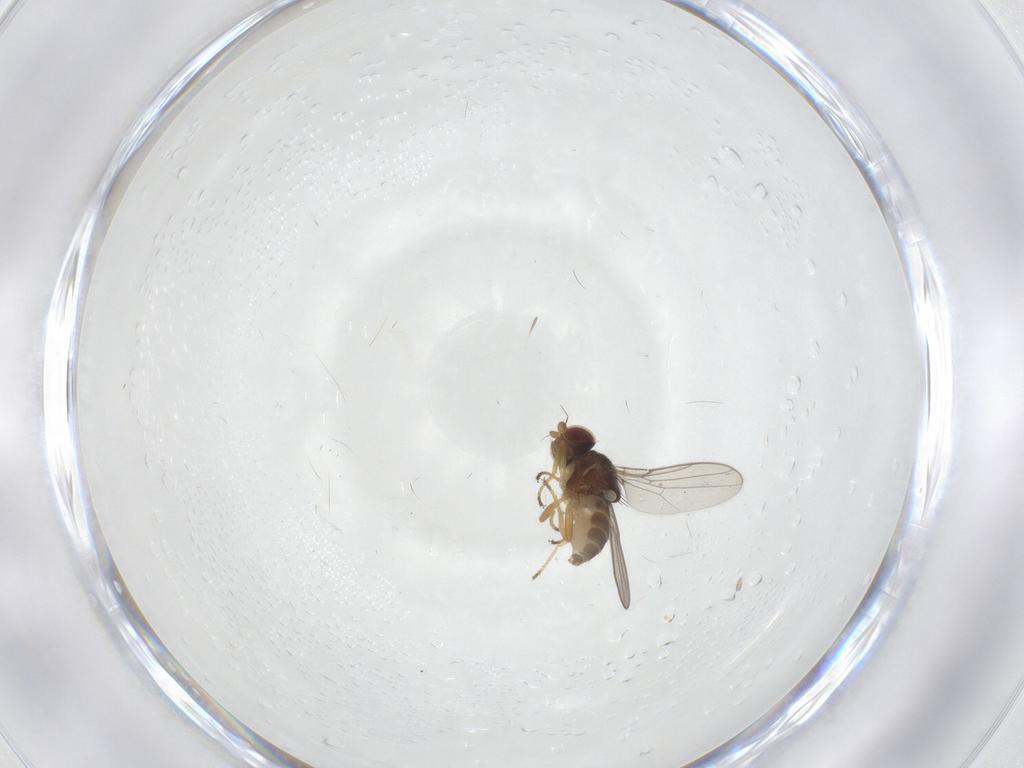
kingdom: Animalia
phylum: Arthropoda
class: Insecta
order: Diptera
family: Chloropidae
